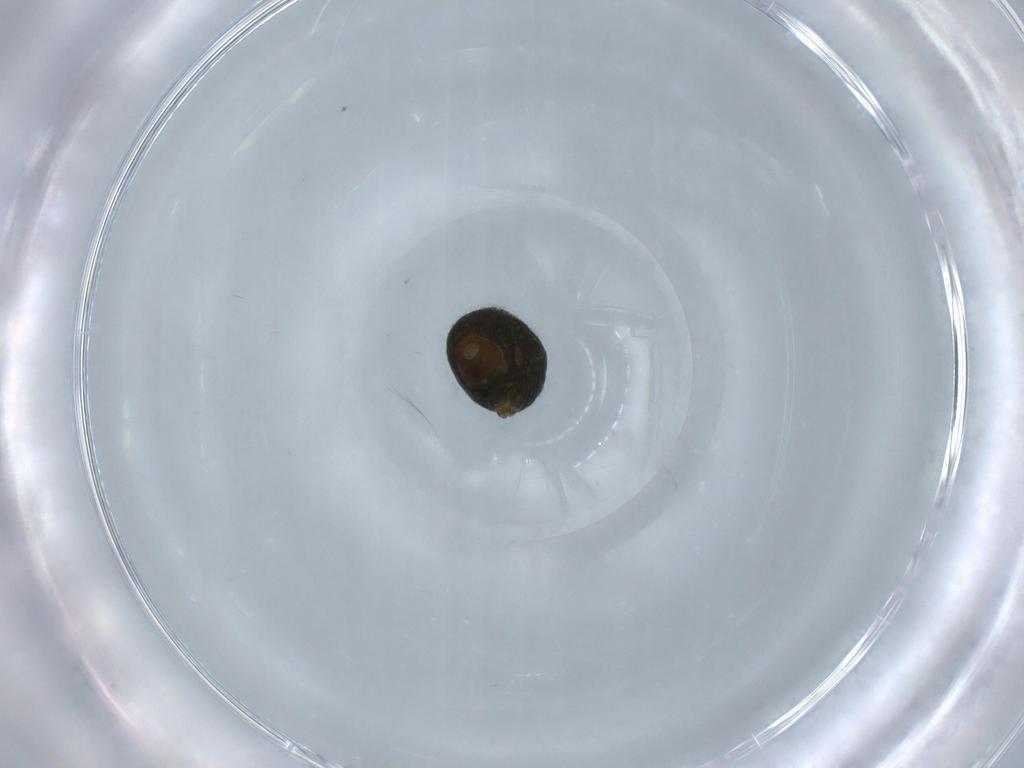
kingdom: Animalia
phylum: Arthropoda
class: Arachnida
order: Araneae
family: Theridiidae
